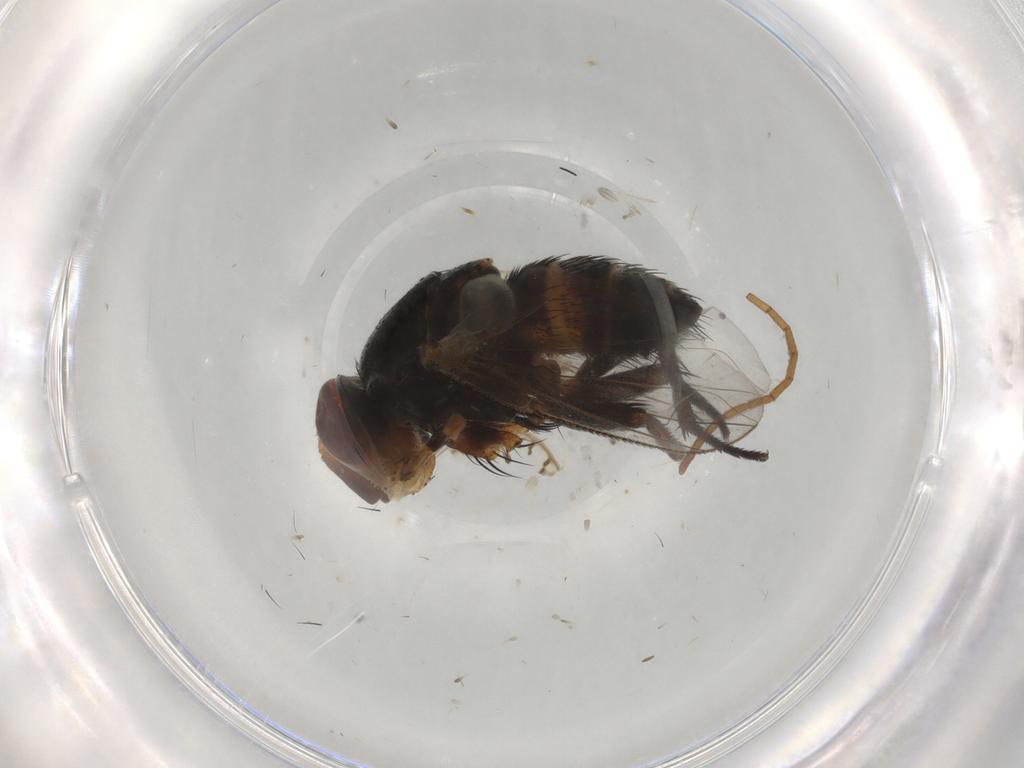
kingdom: Animalia
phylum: Arthropoda
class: Insecta
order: Diptera
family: Tachinidae
